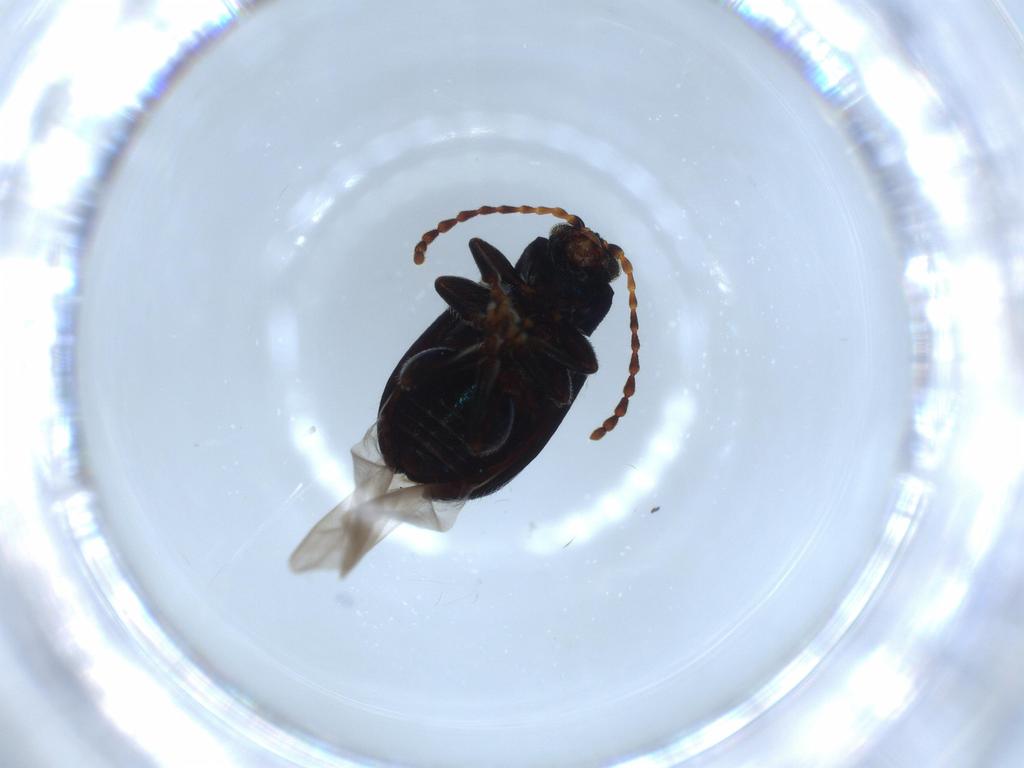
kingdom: Animalia
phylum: Arthropoda
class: Insecta
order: Coleoptera
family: Chrysomelidae
